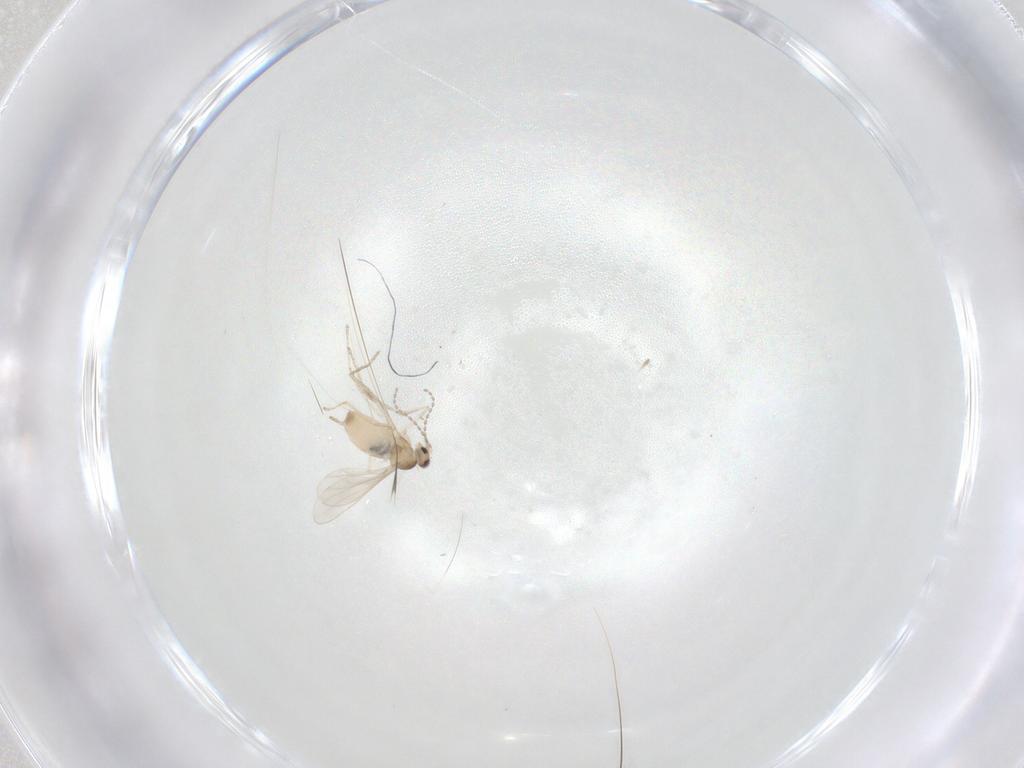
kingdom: Animalia
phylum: Arthropoda
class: Insecta
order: Diptera
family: Cecidomyiidae
